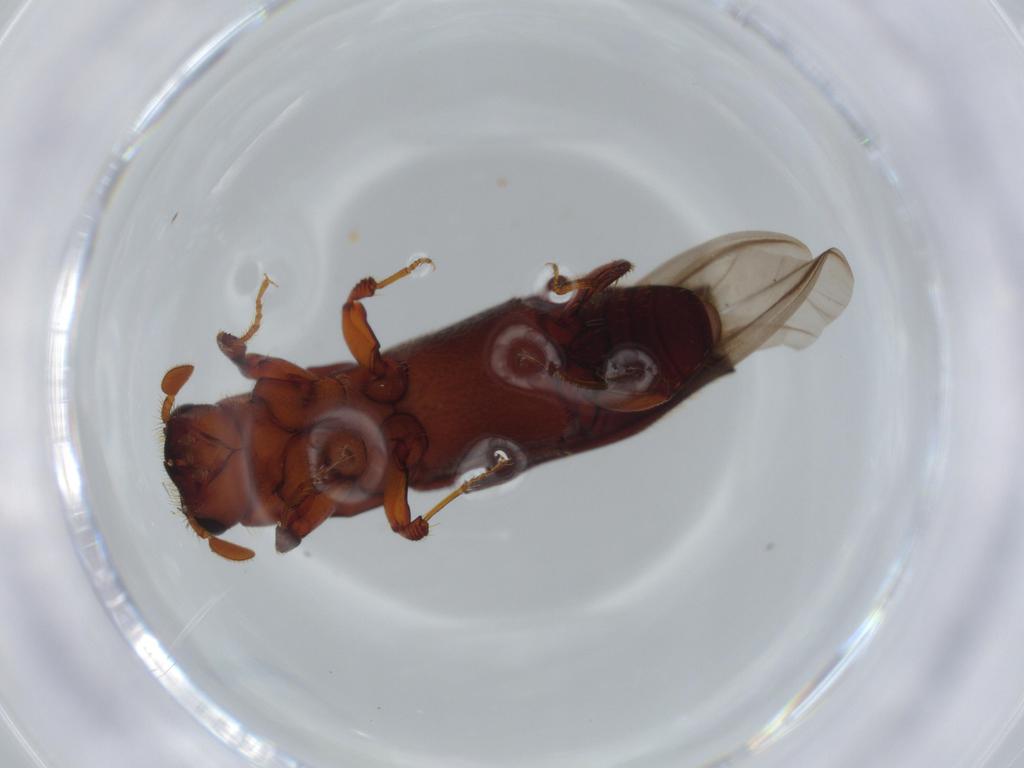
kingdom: Animalia
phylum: Arthropoda
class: Insecta
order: Coleoptera
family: Curculionidae
